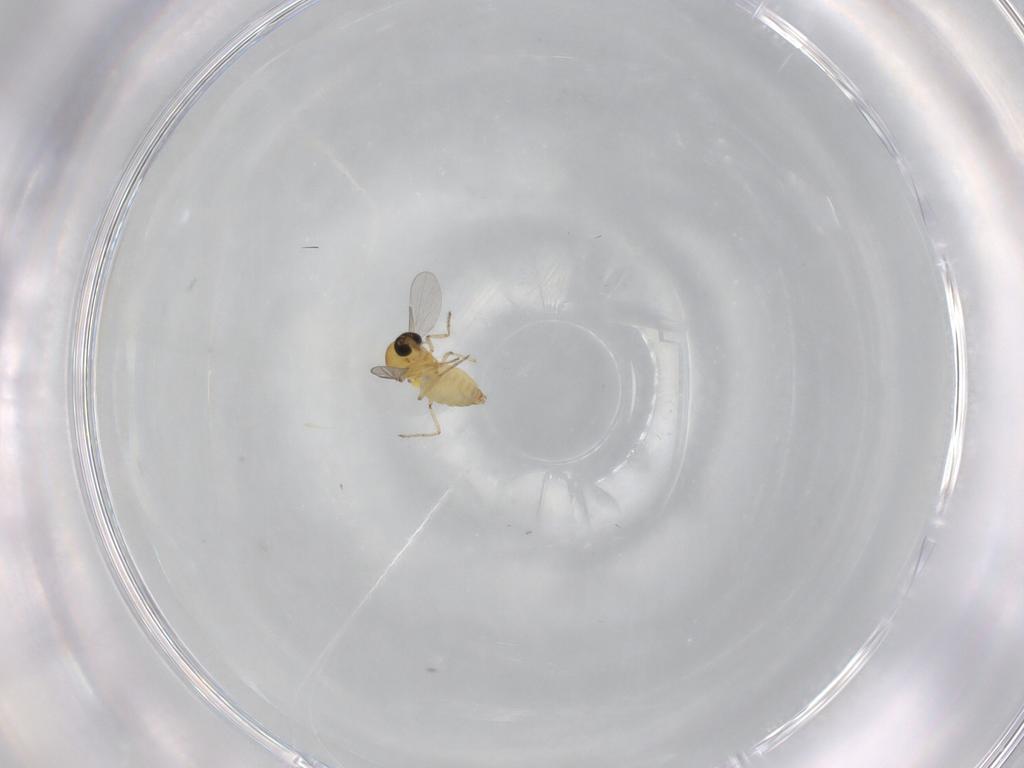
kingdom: Animalia
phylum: Arthropoda
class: Insecta
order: Diptera
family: Ceratopogonidae
